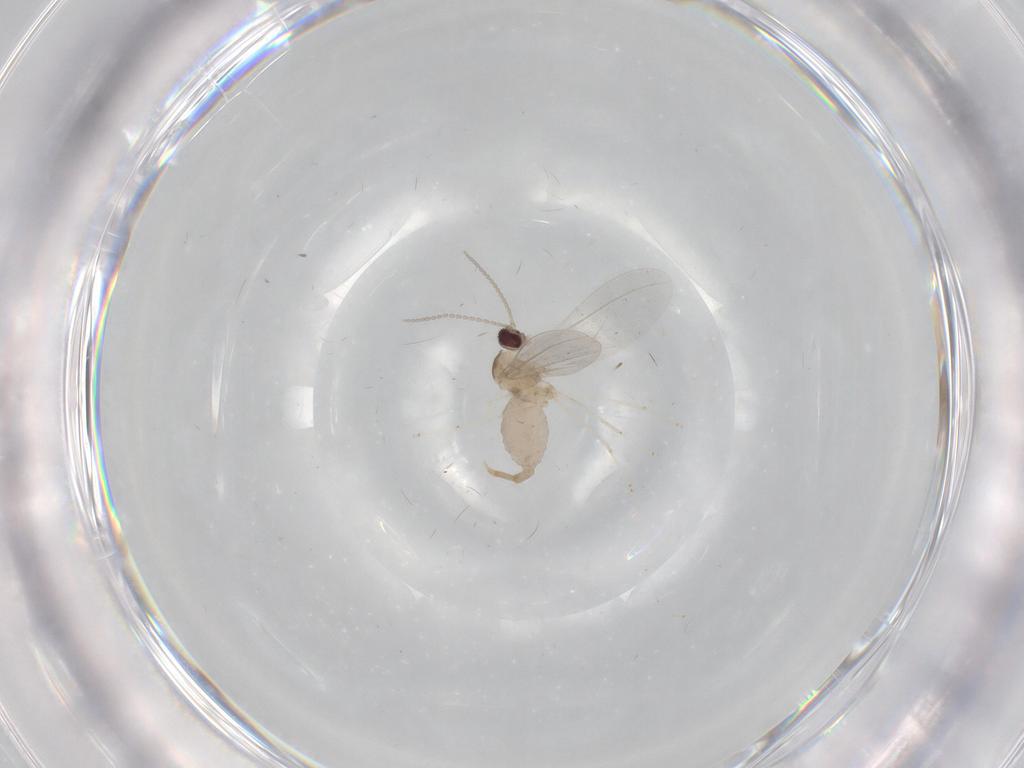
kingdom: Animalia
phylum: Arthropoda
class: Insecta
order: Diptera
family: Cecidomyiidae
